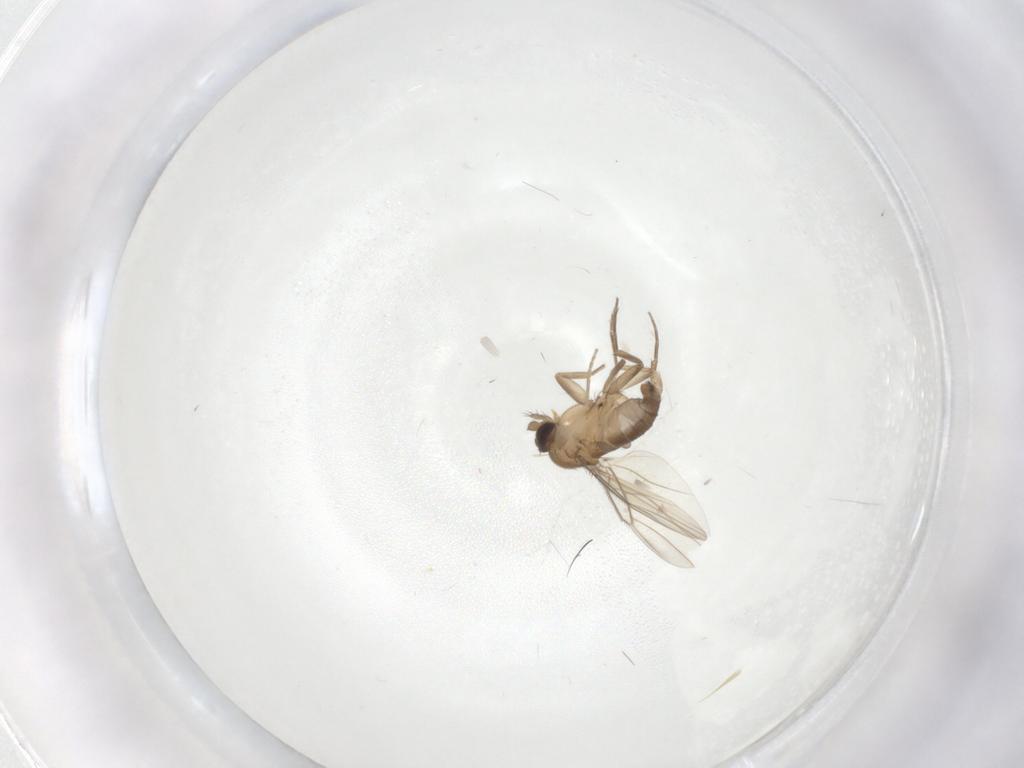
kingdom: Animalia
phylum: Arthropoda
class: Insecta
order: Diptera
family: Phoridae
